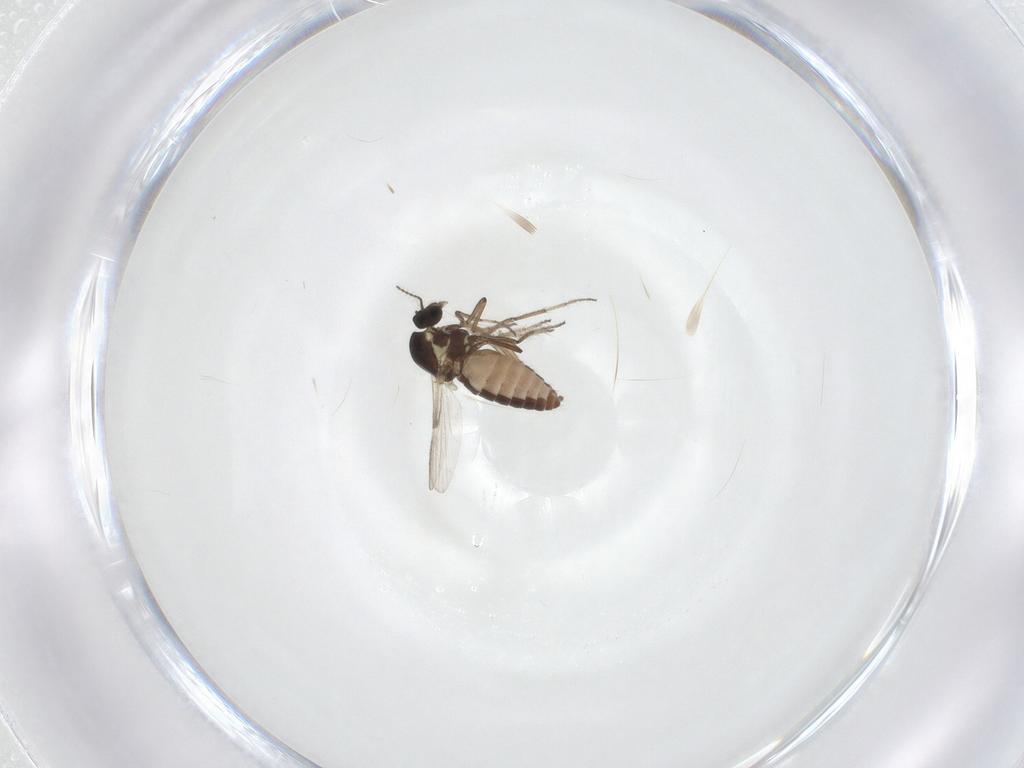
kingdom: Animalia
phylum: Arthropoda
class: Insecta
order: Diptera
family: Ceratopogonidae
